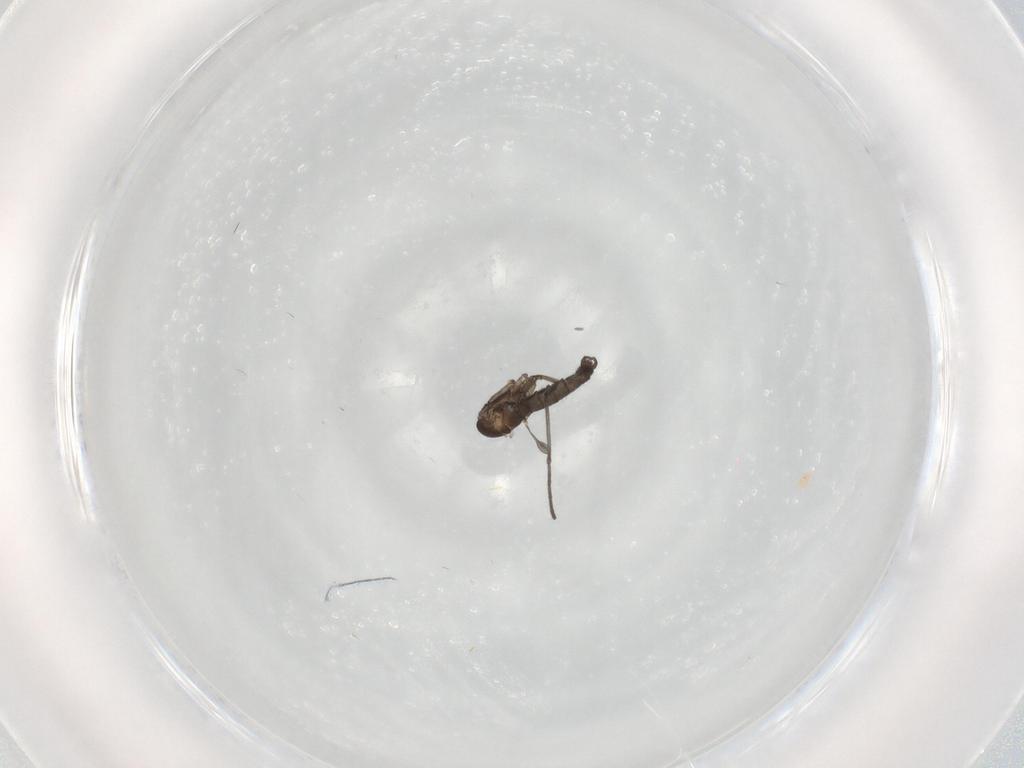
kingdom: Animalia
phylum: Arthropoda
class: Insecta
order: Diptera
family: Sciaridae
